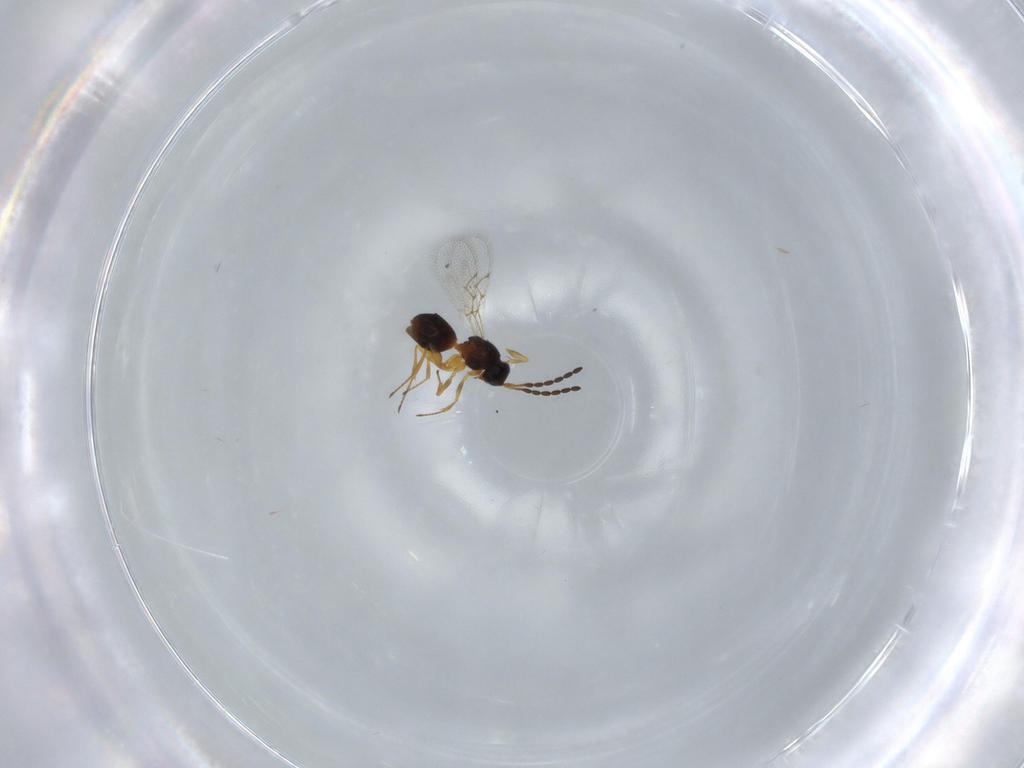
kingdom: Animalia
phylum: Arthropoda
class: Insecta
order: Hymenoptera
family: Figitidae
